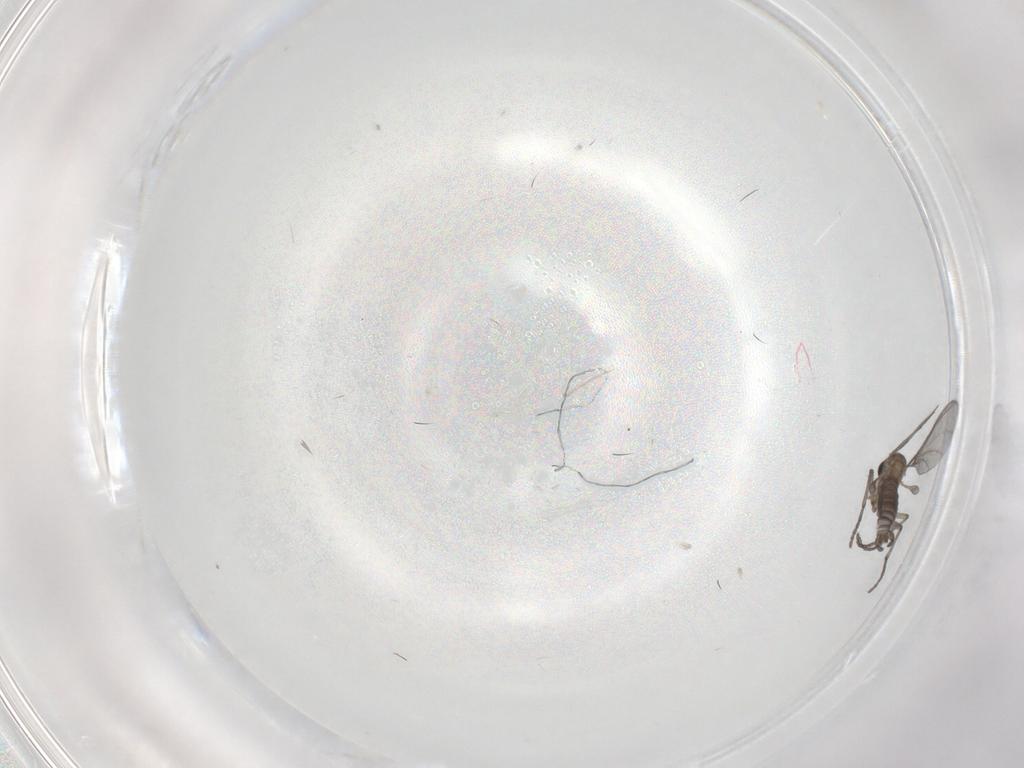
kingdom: Animalia
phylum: Arthropoda
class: Insecta
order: Diptera
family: Sciaridae
